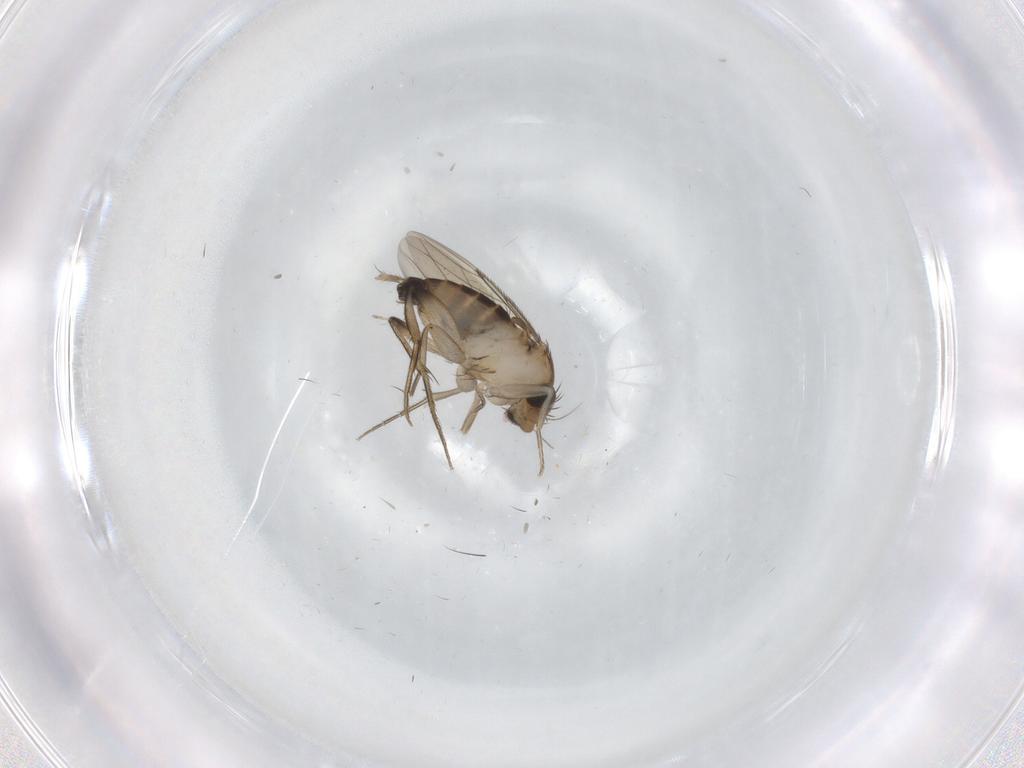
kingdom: Animalia
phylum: Arthropoda
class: Insecta
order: Diptera
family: Phoridae
